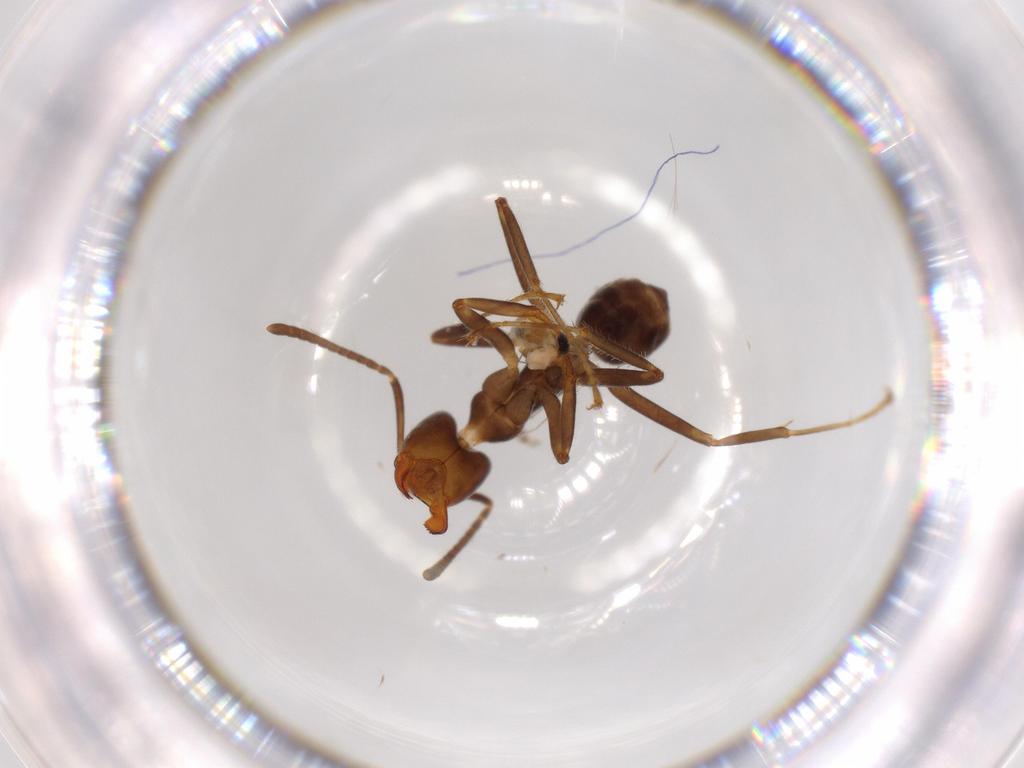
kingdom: Animalia
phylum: Arthropoda
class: Insecta
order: Hymenoptera
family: Formicidae
